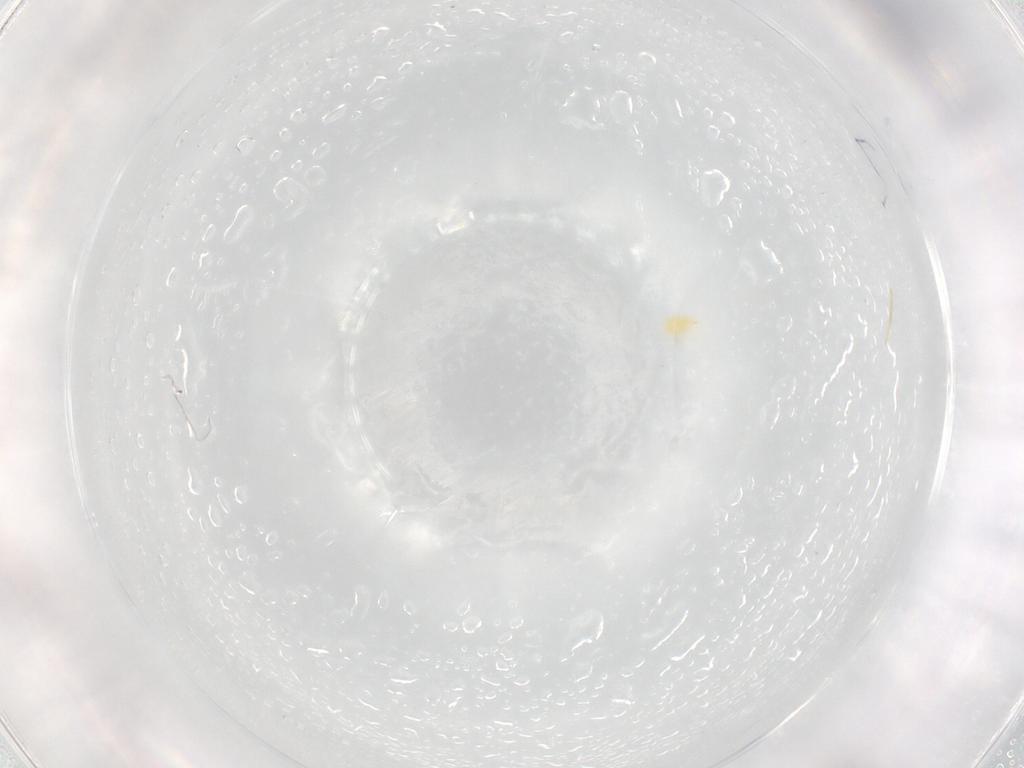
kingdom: Animalia
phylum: Arthropoda
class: Arachnida
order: Trombidiformes
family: Tetranychidae
